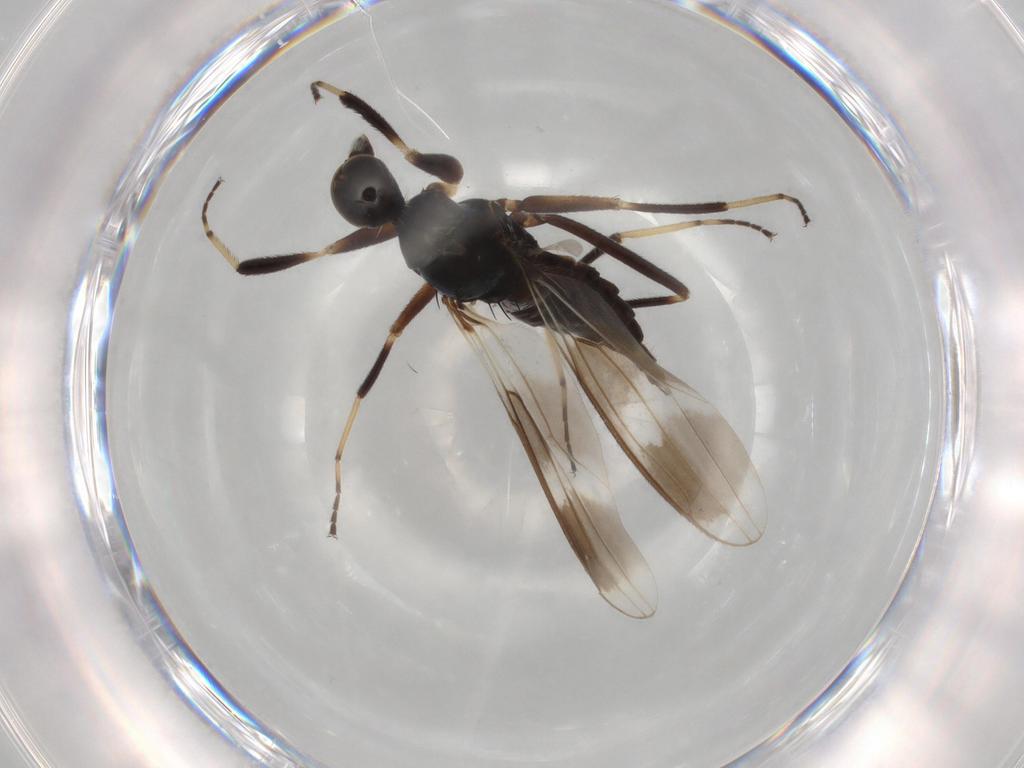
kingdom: Animalia
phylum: Arthropoda
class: Insecta
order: Diptera
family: Hybotidae
